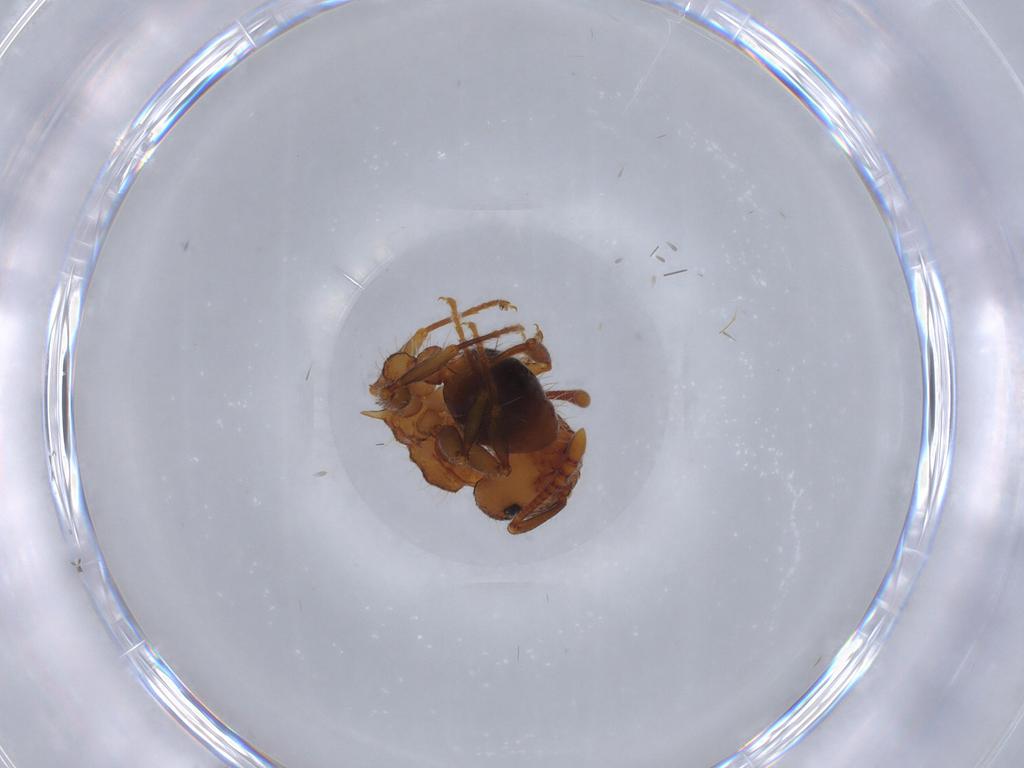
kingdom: Animalia
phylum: Arthropoda
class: Insecta
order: Hymenoptera
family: Formicidae
